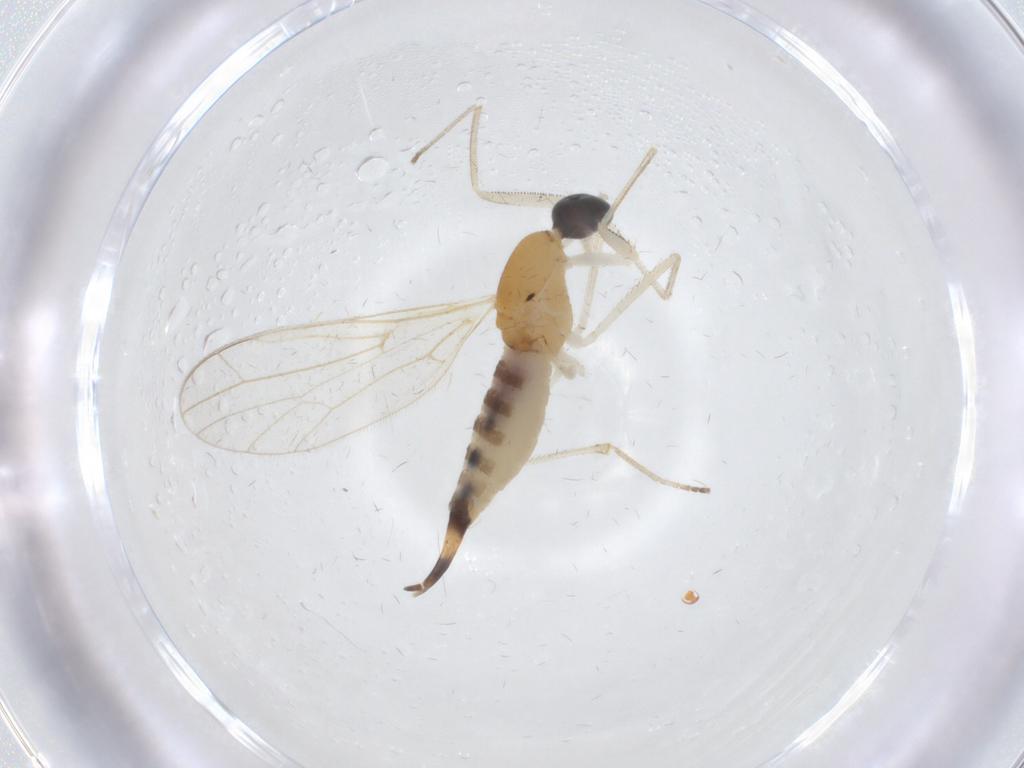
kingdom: Animalia
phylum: Arthropoda
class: Insecta
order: Diptera
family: Empididae
